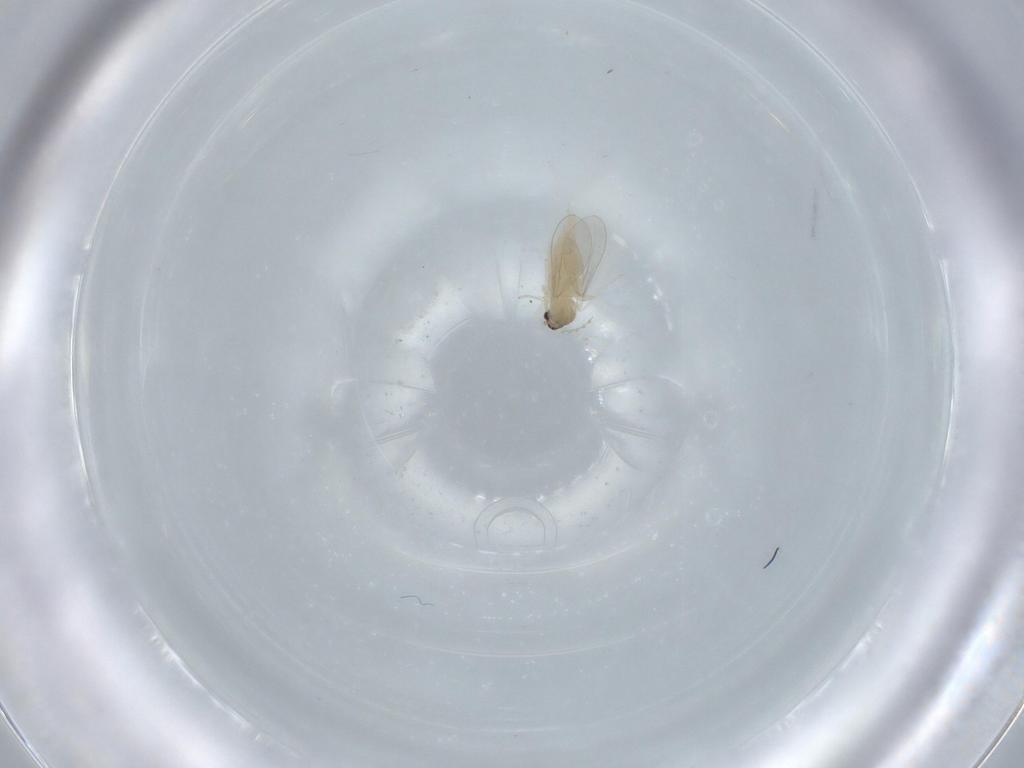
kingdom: Animalia
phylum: Arthropoda
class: Insecta
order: Diptera
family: Cecidomyiidae
